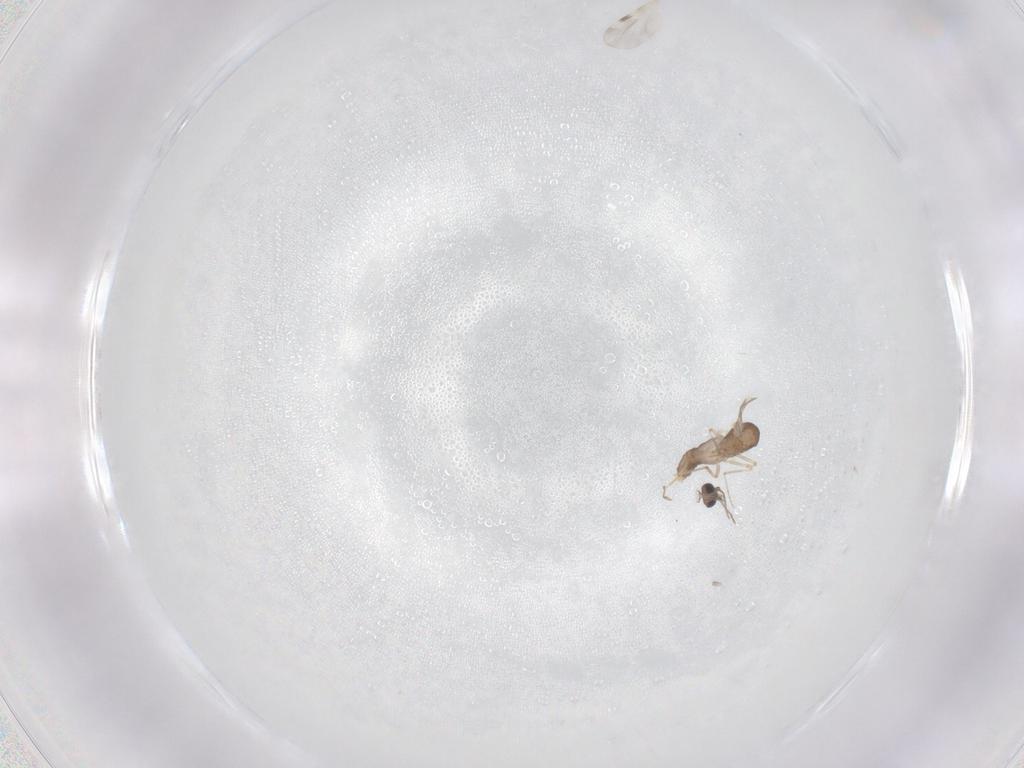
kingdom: Animalia
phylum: Arthropoda
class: Insecta
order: Diptera
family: Ceratopogonidae
